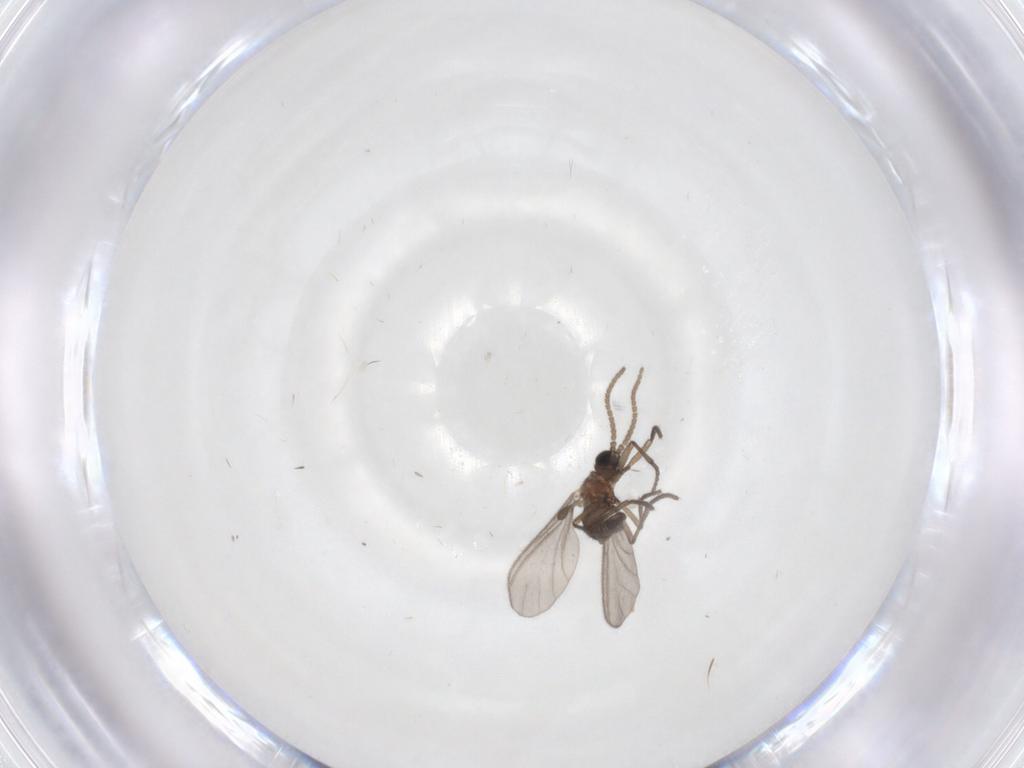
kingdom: Animalia
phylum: Arthropoda
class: Insecta
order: Diptera
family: Sciaridae
